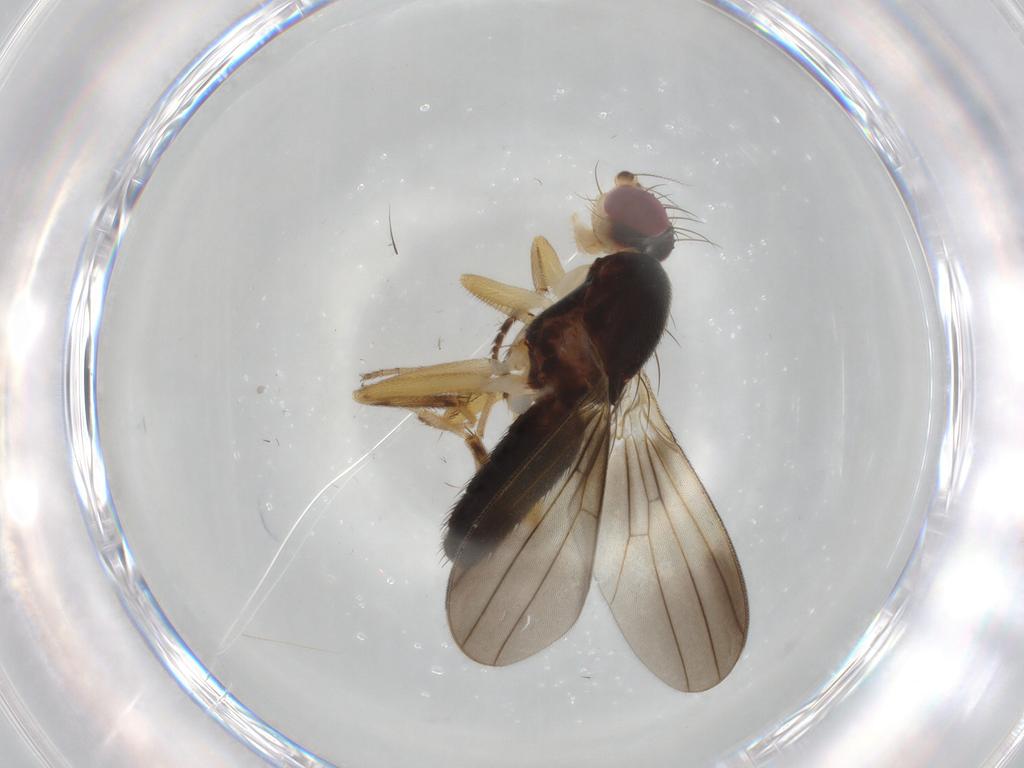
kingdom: Animalia
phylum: Arthropoda
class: Insecta
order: Diptera
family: Clusiidae
